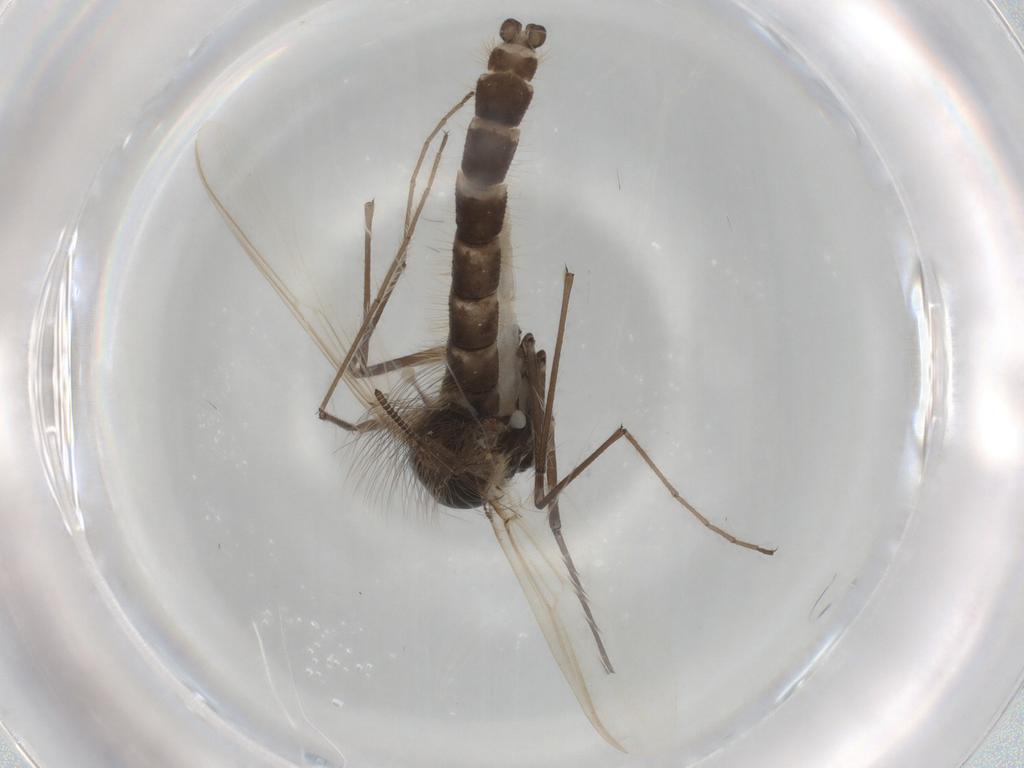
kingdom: Animalia
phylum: Arthropoda
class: Insecta
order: Diptera
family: Chironomidae
